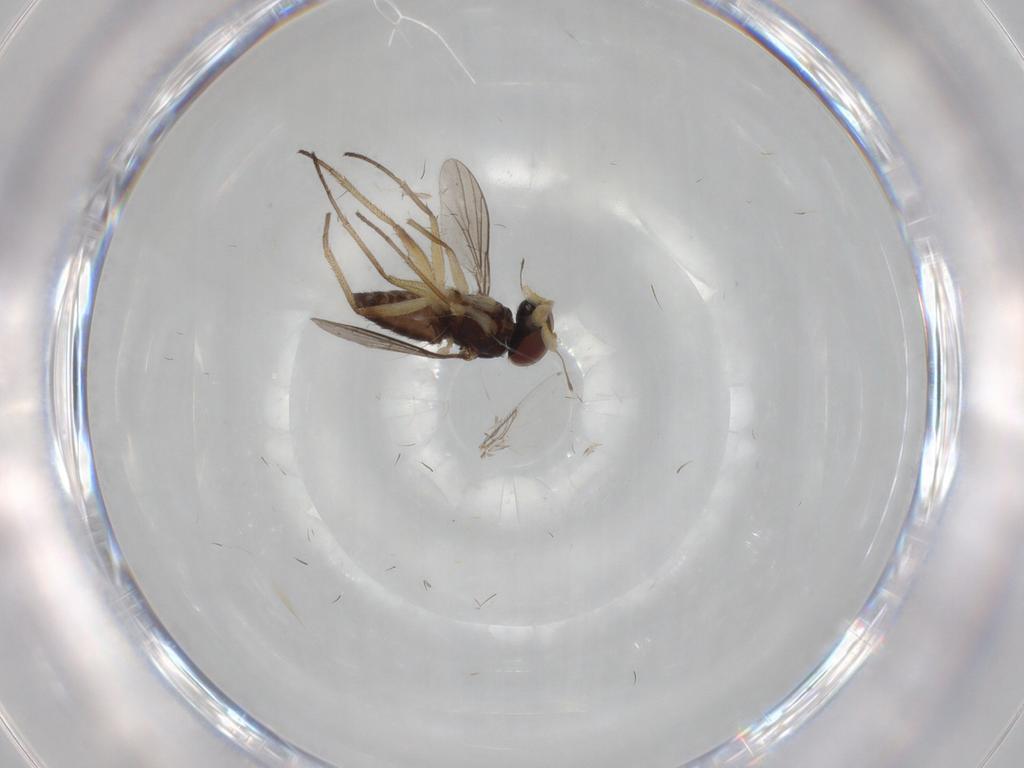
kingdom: Animalia
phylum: Arthropoda
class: Insecta
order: Diptera
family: Dolichopodidae
